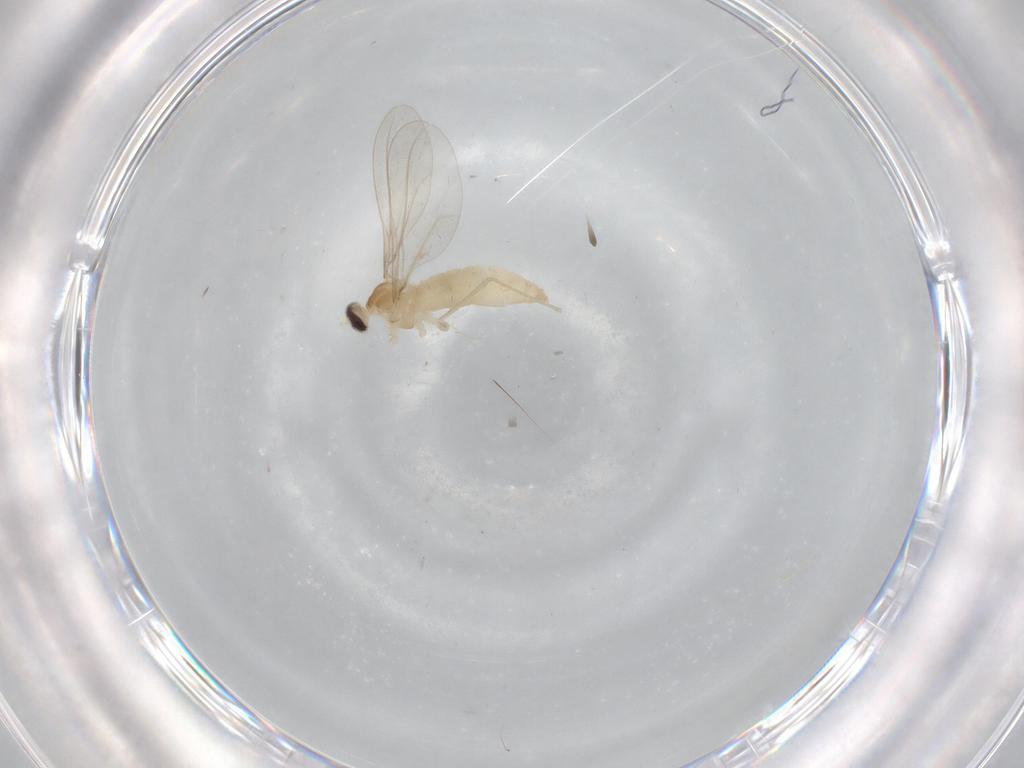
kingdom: Animalia
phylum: Arthropoda
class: Insecta
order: Diptera
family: Cecidomyiidae
